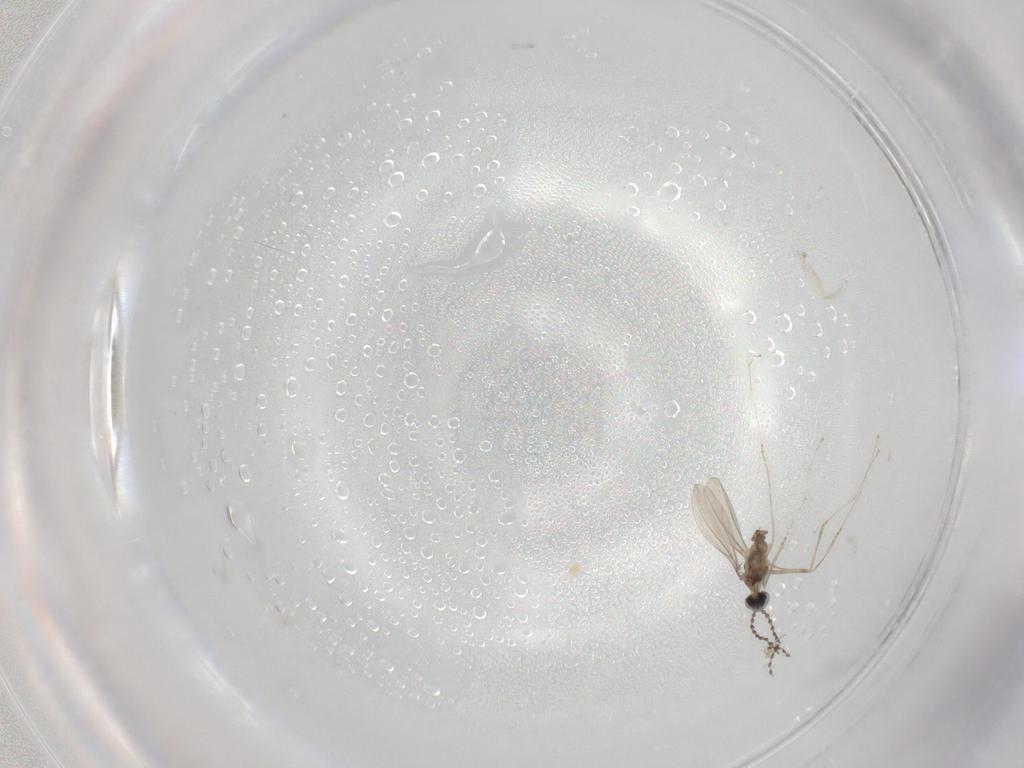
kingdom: Animalia
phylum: Arthropoda
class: Insecta
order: Diptera
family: Cecidomyiidae
